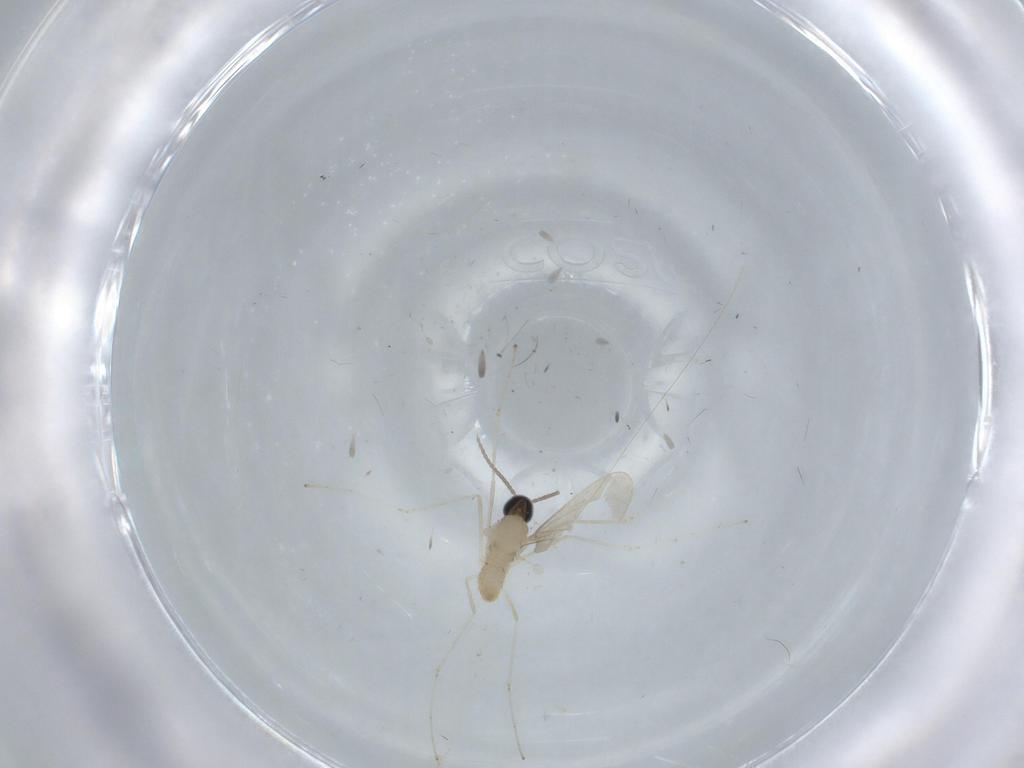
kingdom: Animalia
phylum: Arthropoda
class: Insecta
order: Diptera
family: Cecidomyiidae
